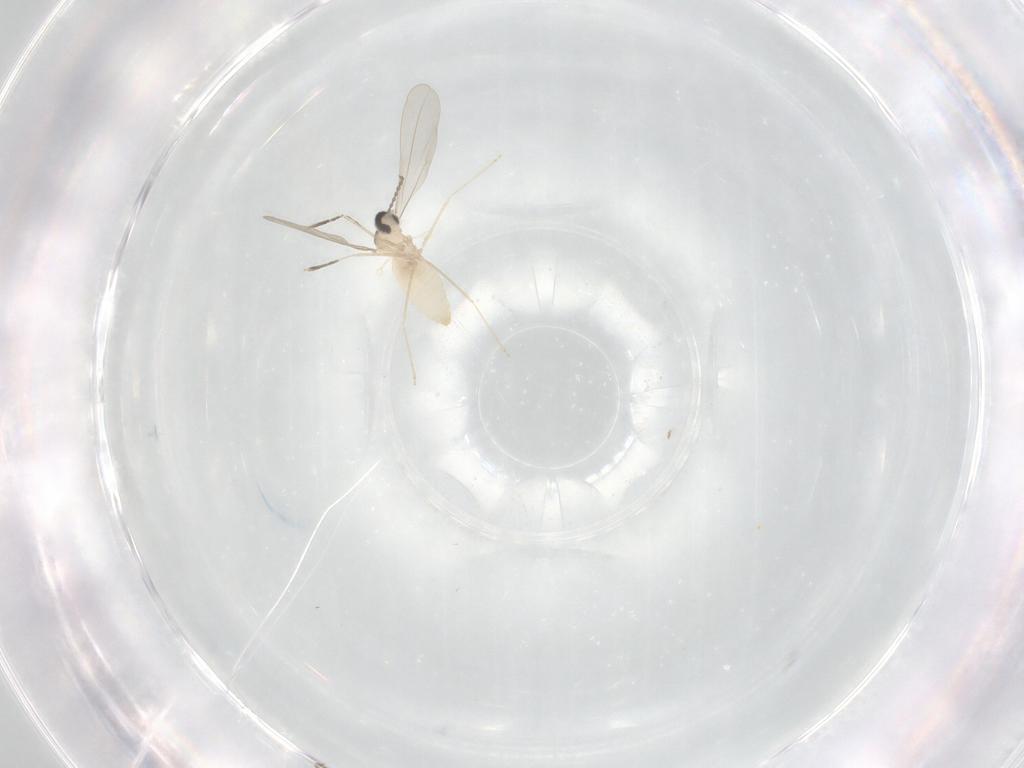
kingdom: Animalia
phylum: Arthropoda
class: Insecta
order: Diptera
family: Cecidomyiidae
